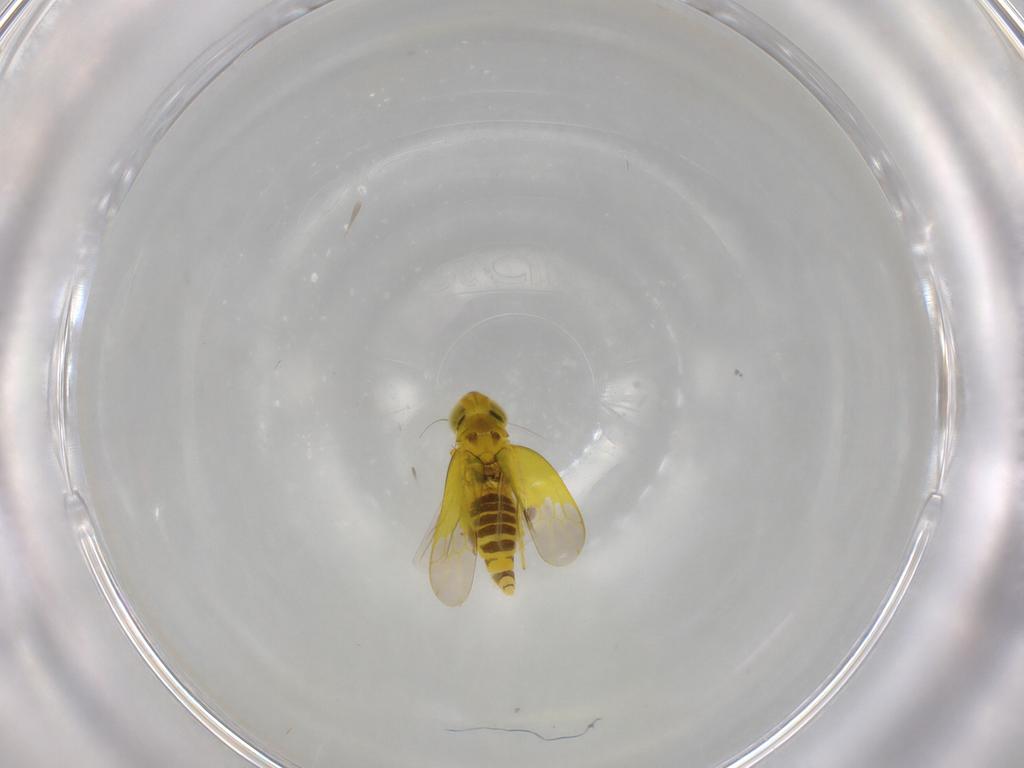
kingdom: Animalia
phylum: Arthropoda
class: Insecta
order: Hemiptera
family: Cicadellidae
